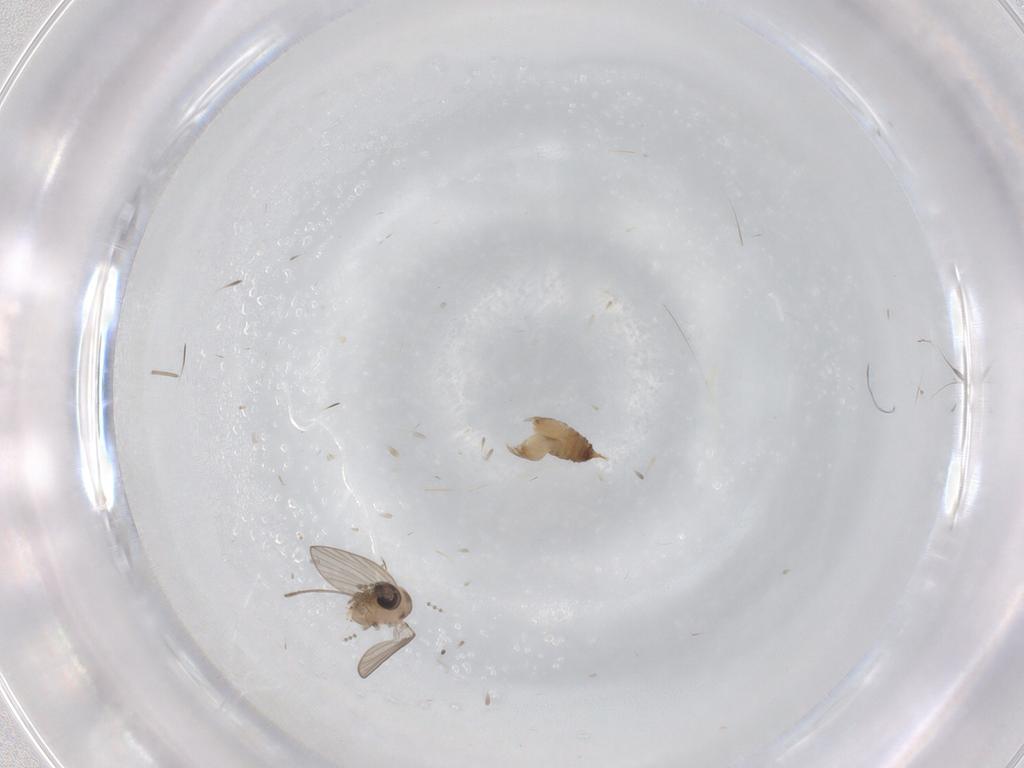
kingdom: Animalia
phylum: Arthropoda
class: Insecta
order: Diptera
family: Psychodidae
